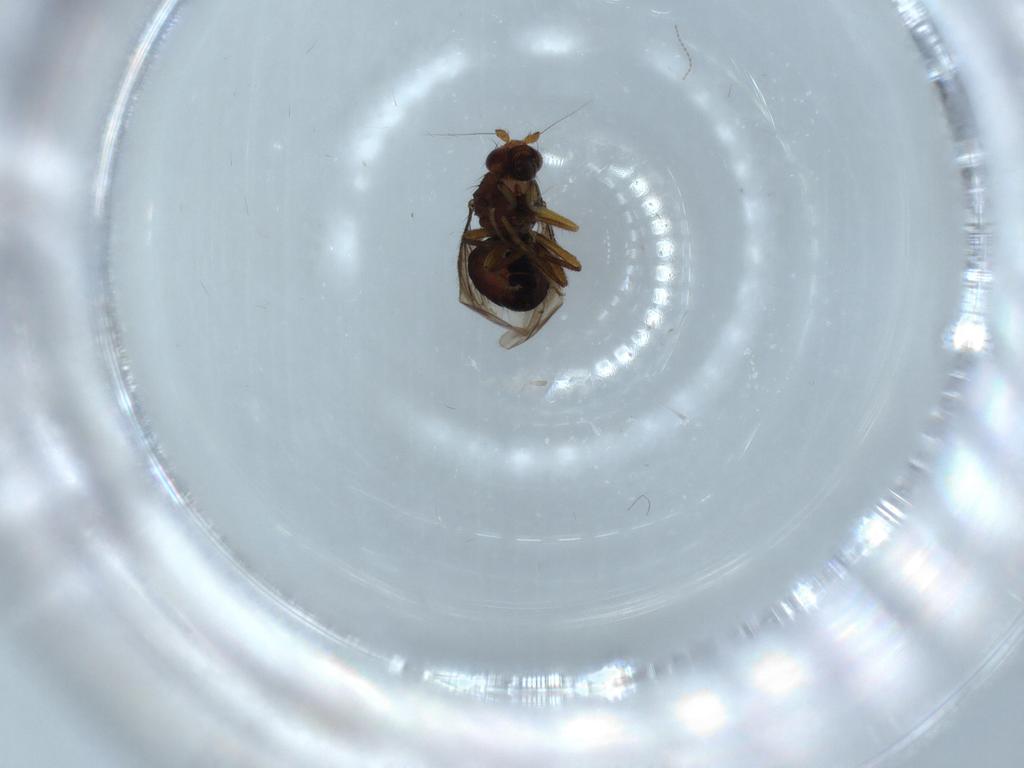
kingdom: Animalia
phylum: Arthropoda
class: Insecta
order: Diptera
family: Sphaeroceridae
